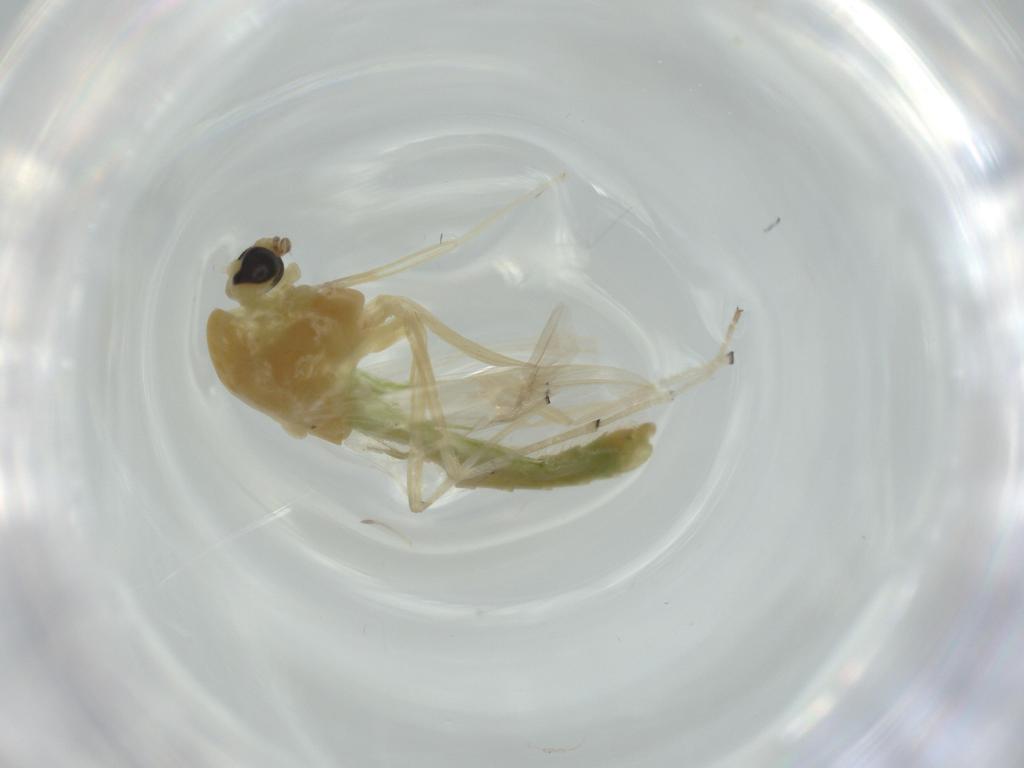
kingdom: Animalia
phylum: Arthropoda
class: Insecta
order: Diptera
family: Chironomidae
